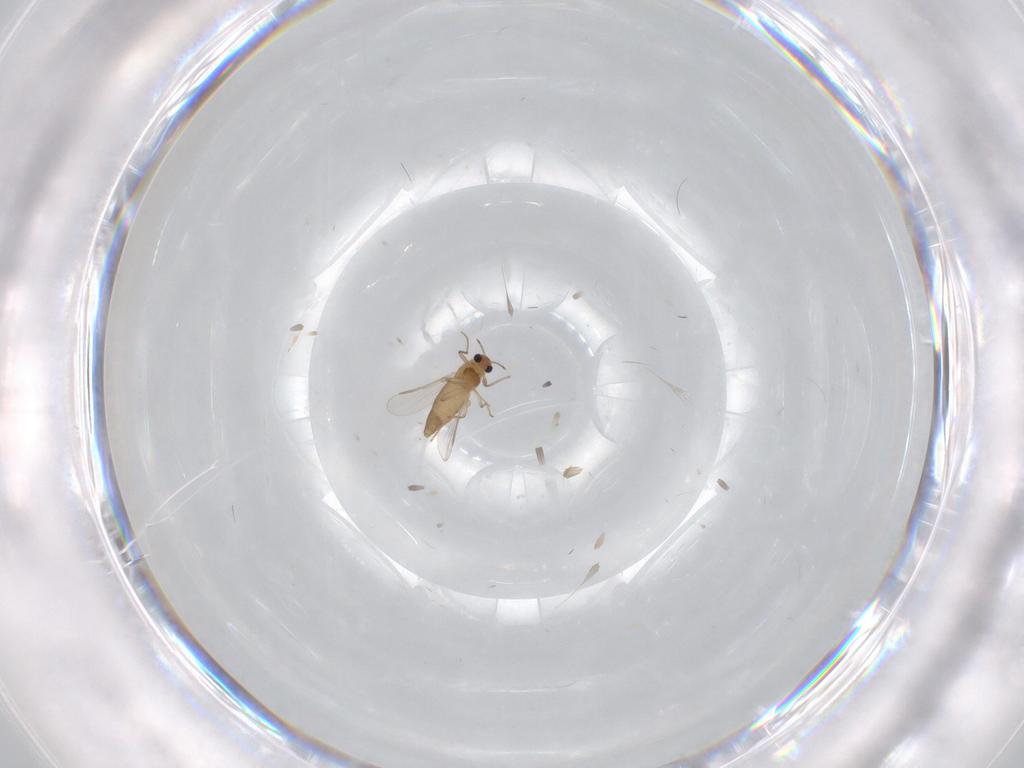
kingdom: Animalia
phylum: Arthropoda
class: Insecta
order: Diptera
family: Chironomidae
